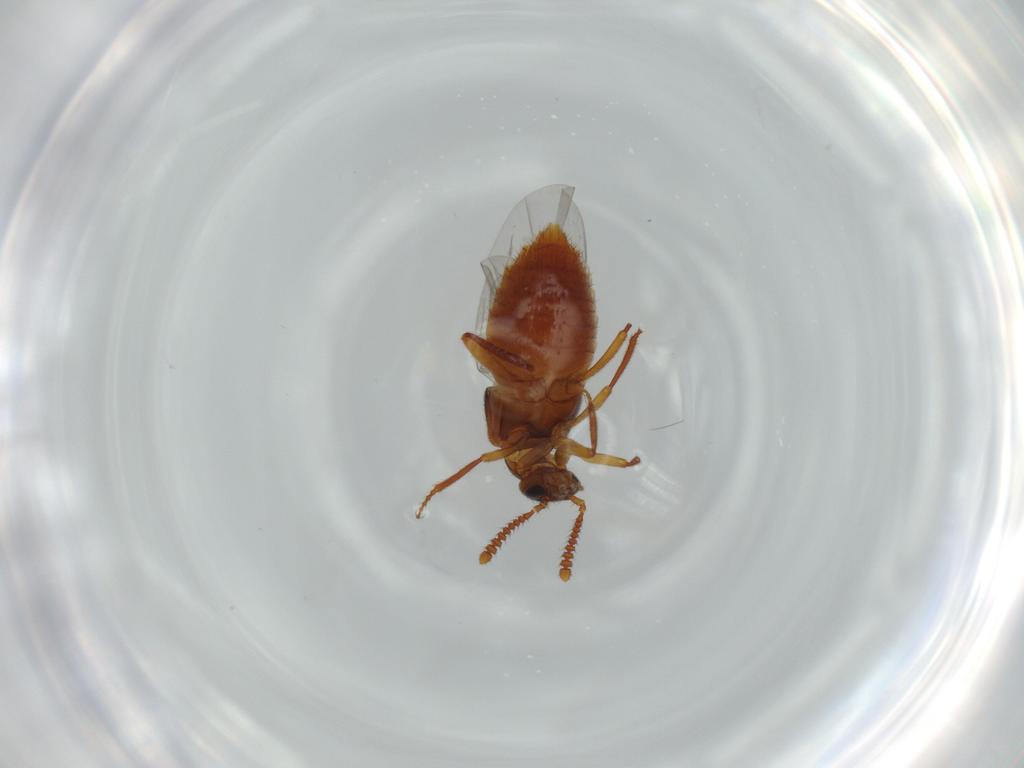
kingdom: Animalia
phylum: Arthropoda
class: Insecta
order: Coleoptera
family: Staphylinidae
